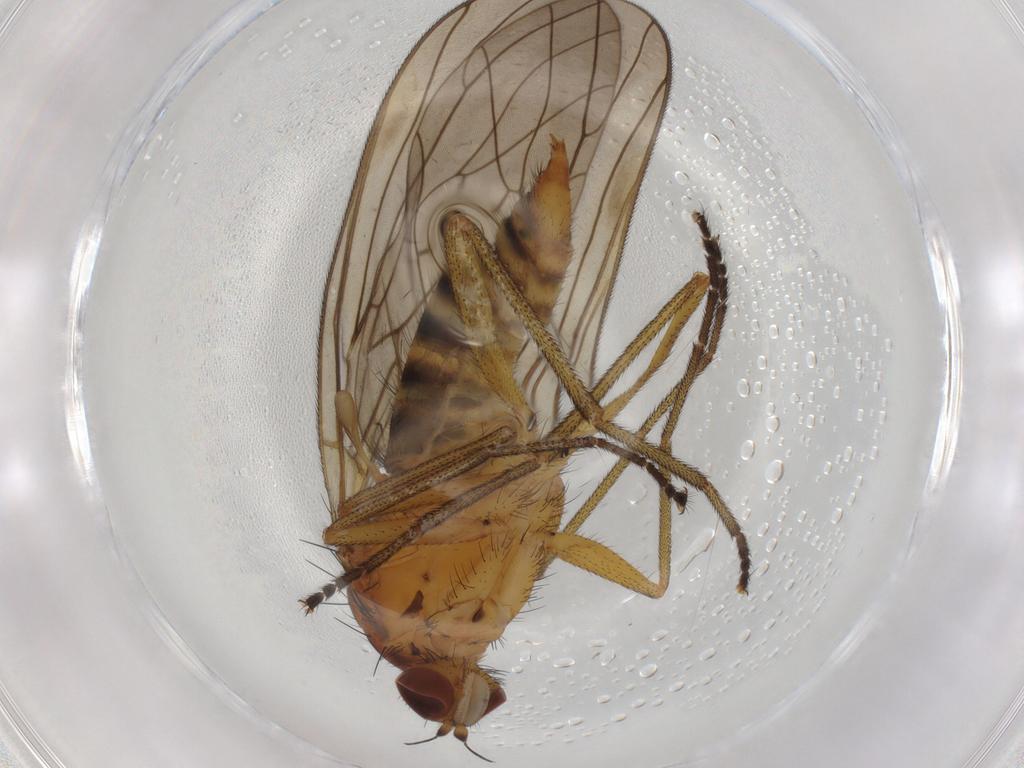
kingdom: Animalia
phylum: Arthropoda
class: Insecta
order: Diptera
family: Brachystomatidae
